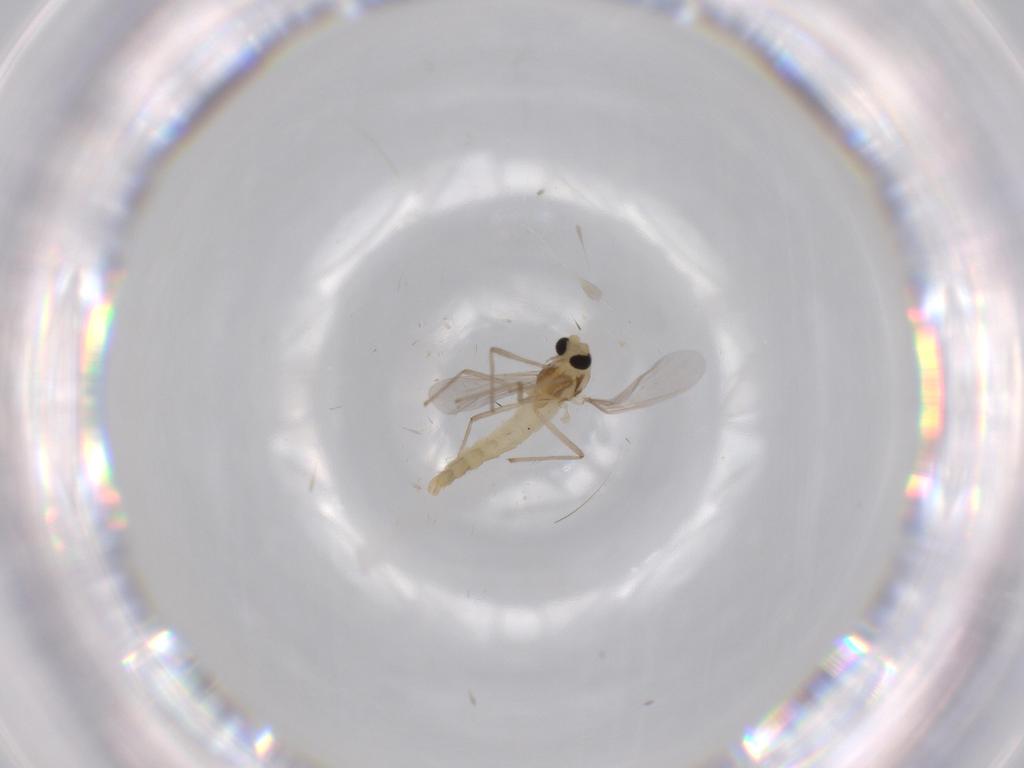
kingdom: Animalia
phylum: Arthropoda
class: Insecta
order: Diptera
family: Chironomidae
